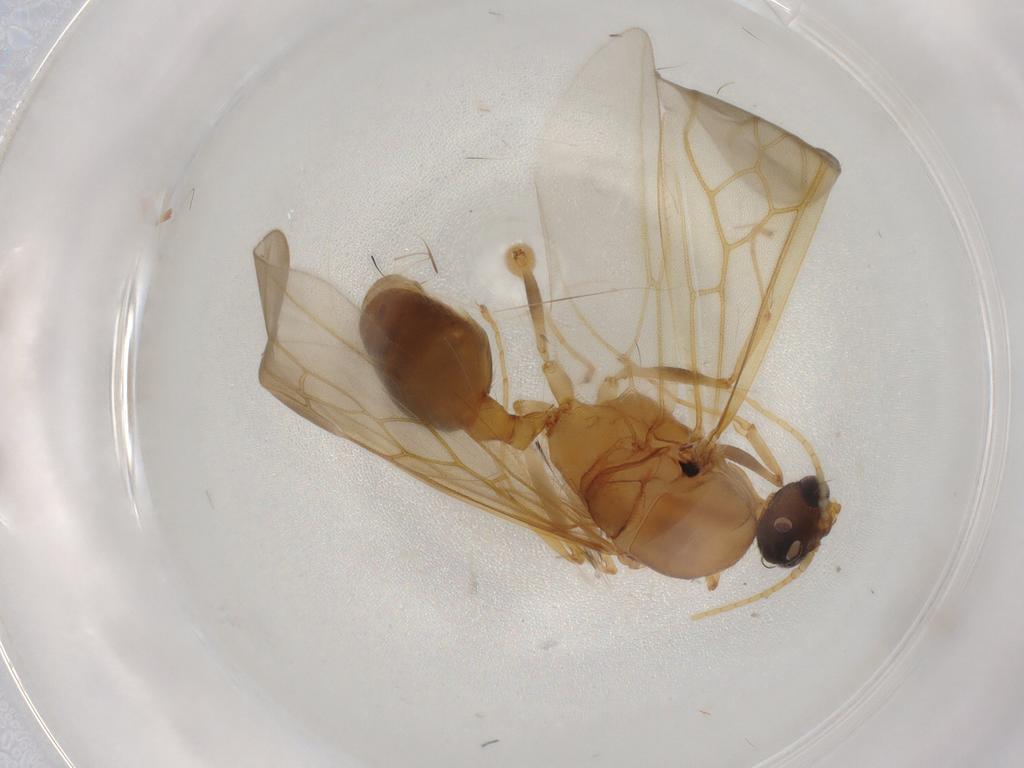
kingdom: Animalia
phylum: Arthropoda
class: Insecta
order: Hymenoptera
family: Formicidae
